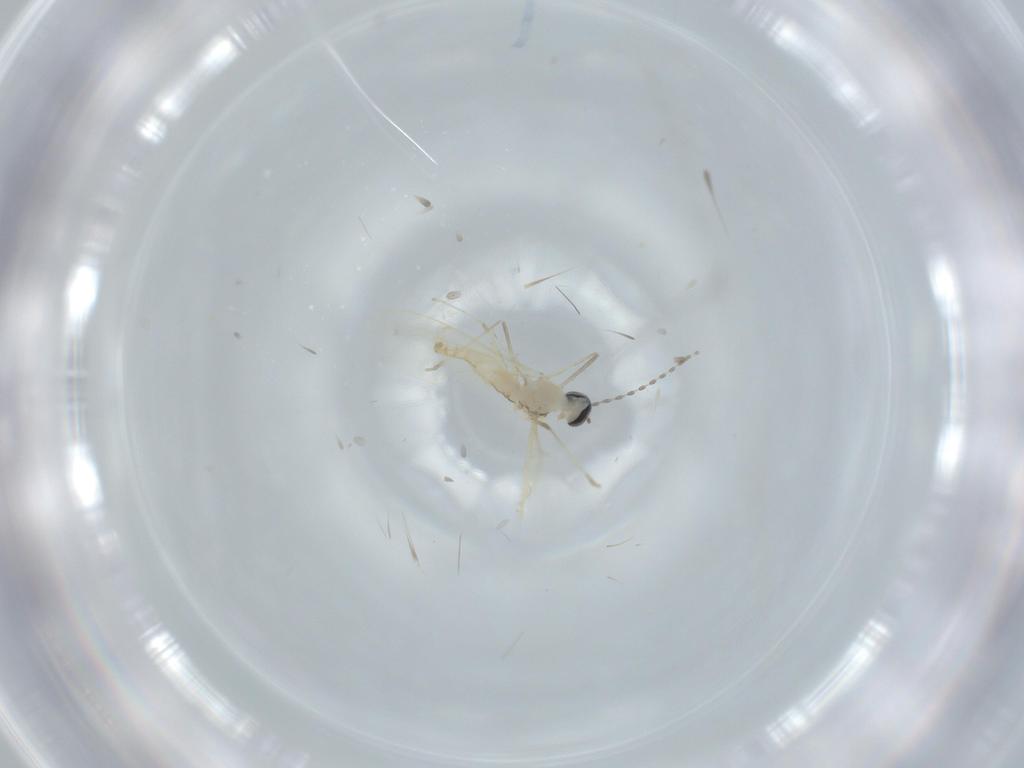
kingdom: Animalia
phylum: Arthropoda
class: Insecta
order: Diptera
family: Cecidomyiidae
